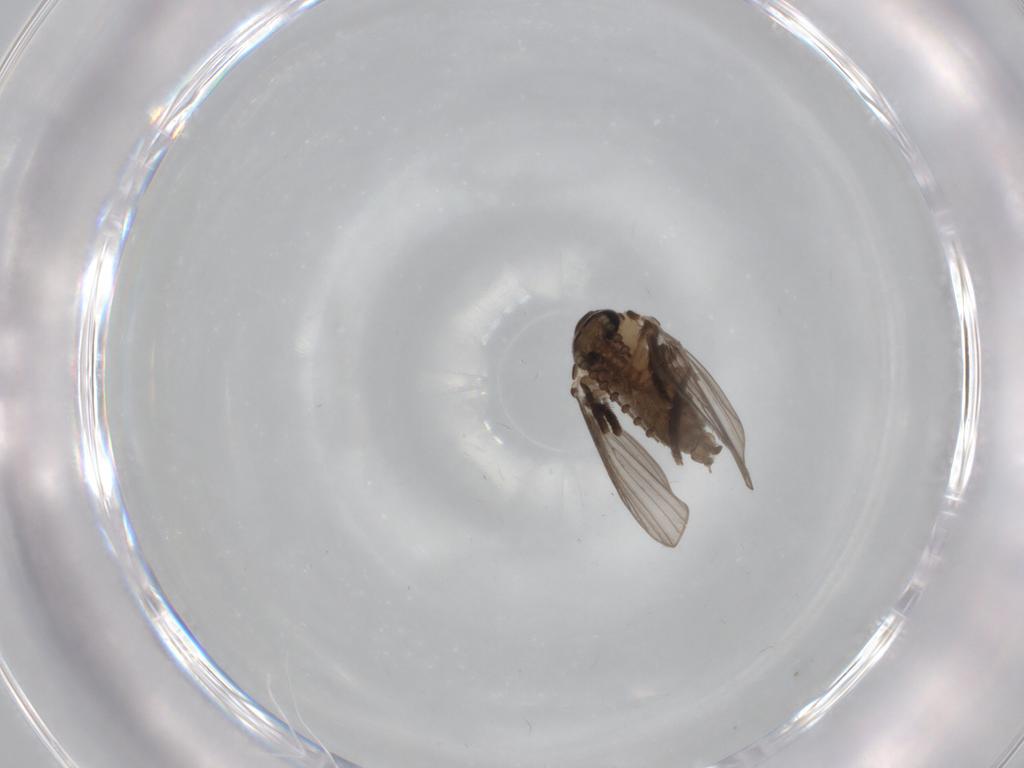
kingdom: Animalia
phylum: Arthropoda
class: Insecta
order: Diptera
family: Psychodidae
